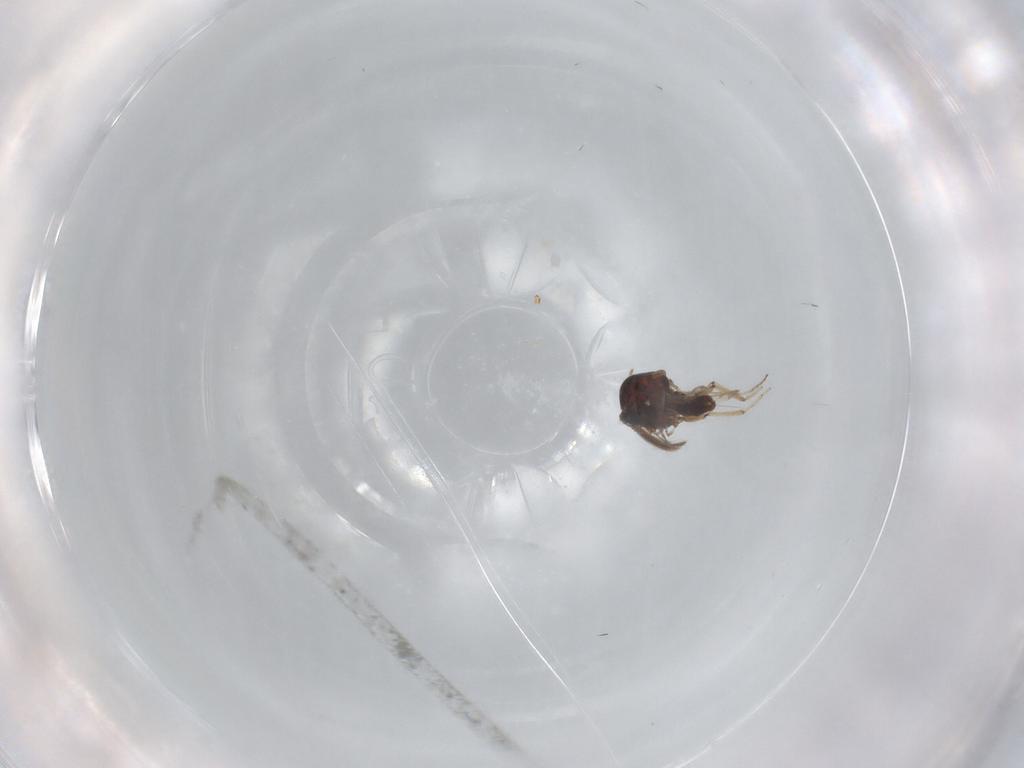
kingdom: Animalia
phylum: Arthropoda
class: Insecta
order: Diptera
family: Ceratopogonidae
